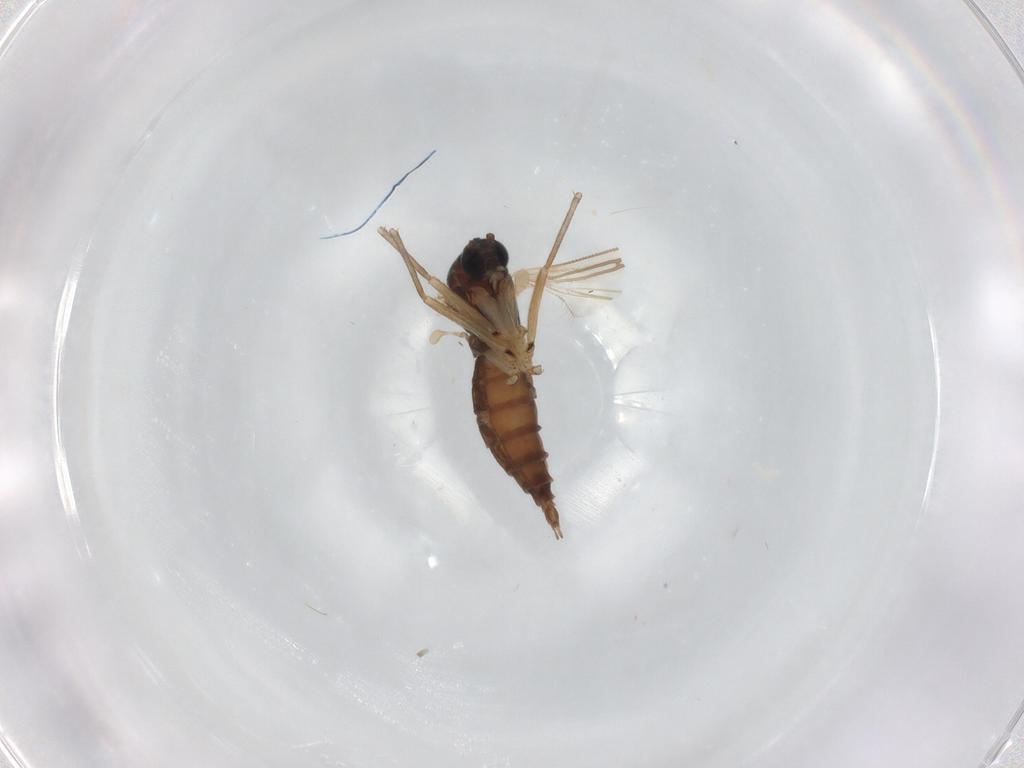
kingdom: Animalia
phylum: Arthropoda
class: Insecta
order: Diptera
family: Sciaridae
